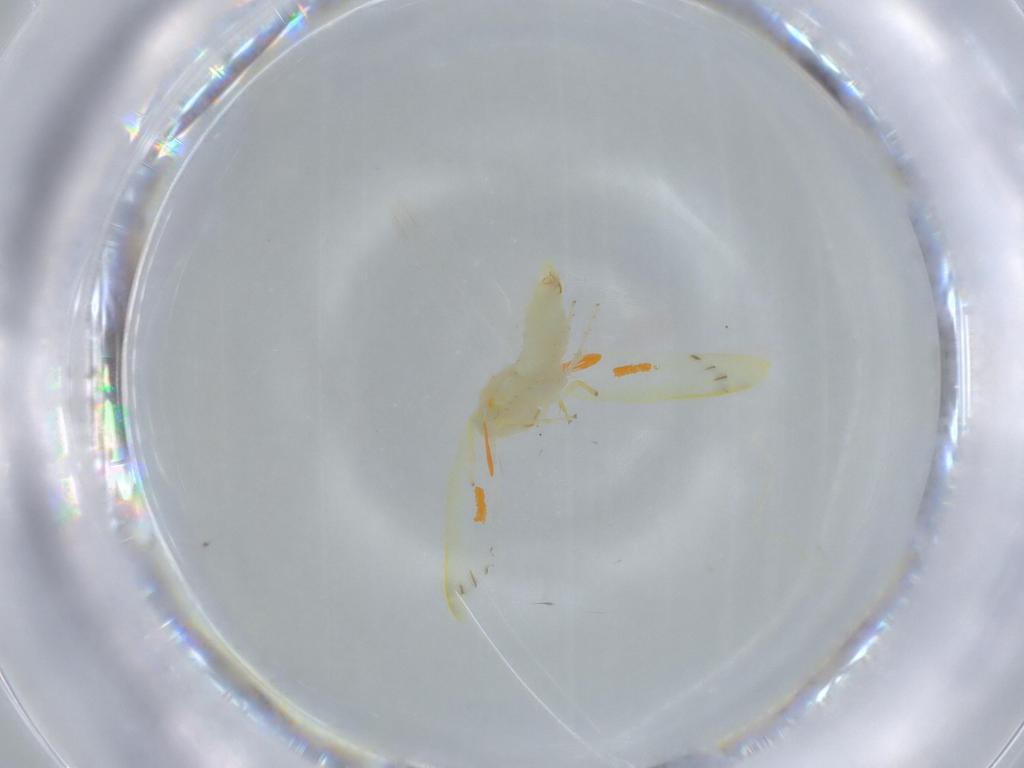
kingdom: Animalia
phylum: Arthropoda
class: Insecta
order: Hemiptera
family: Cicadellidae
